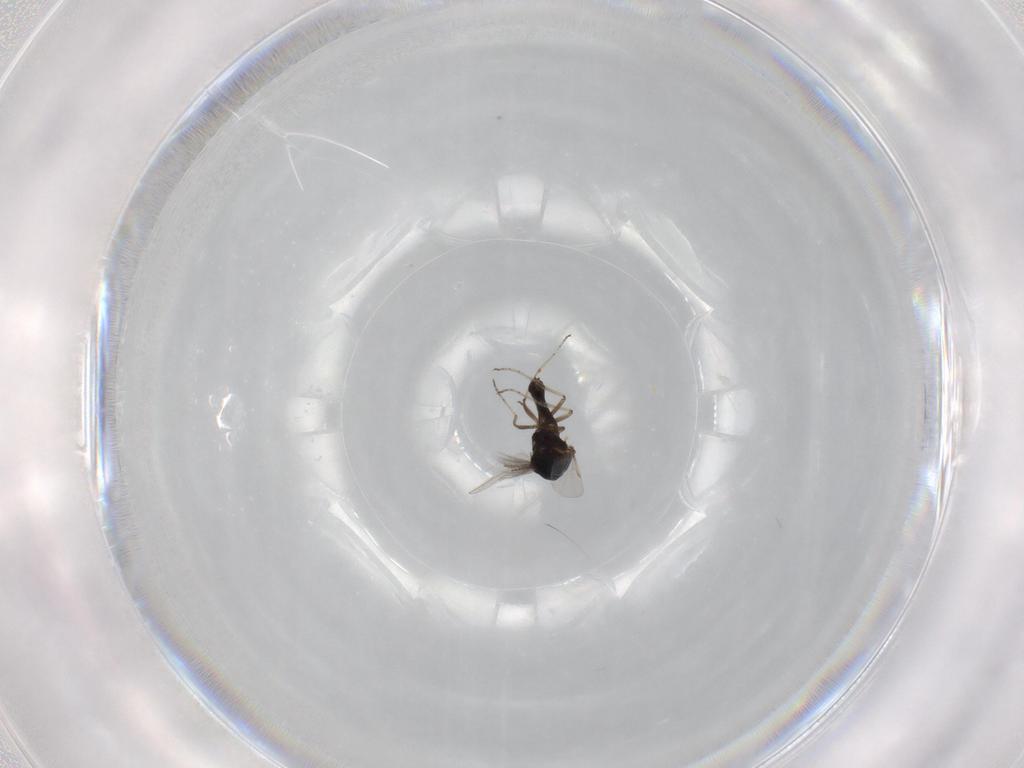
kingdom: Animalia
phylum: Arthropoda
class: Insecta
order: Diptera
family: Ceratopogonidae
